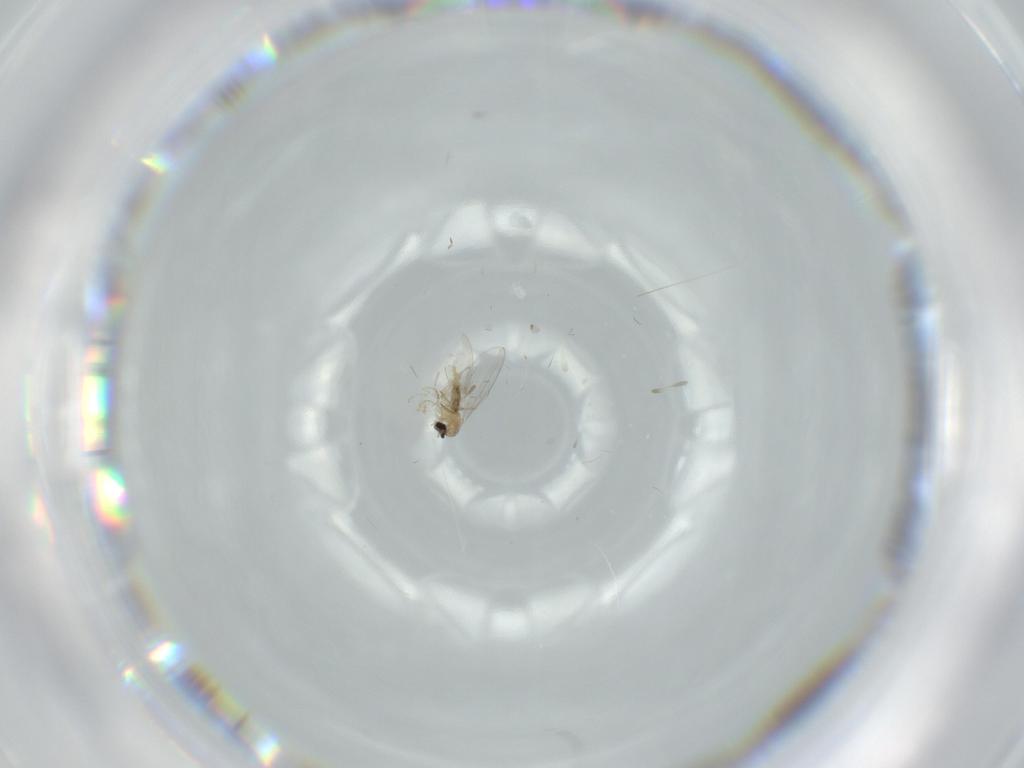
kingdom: Animalia
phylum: Arthropoda
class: Insecta
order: Diptera
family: Cecidomyiidae
